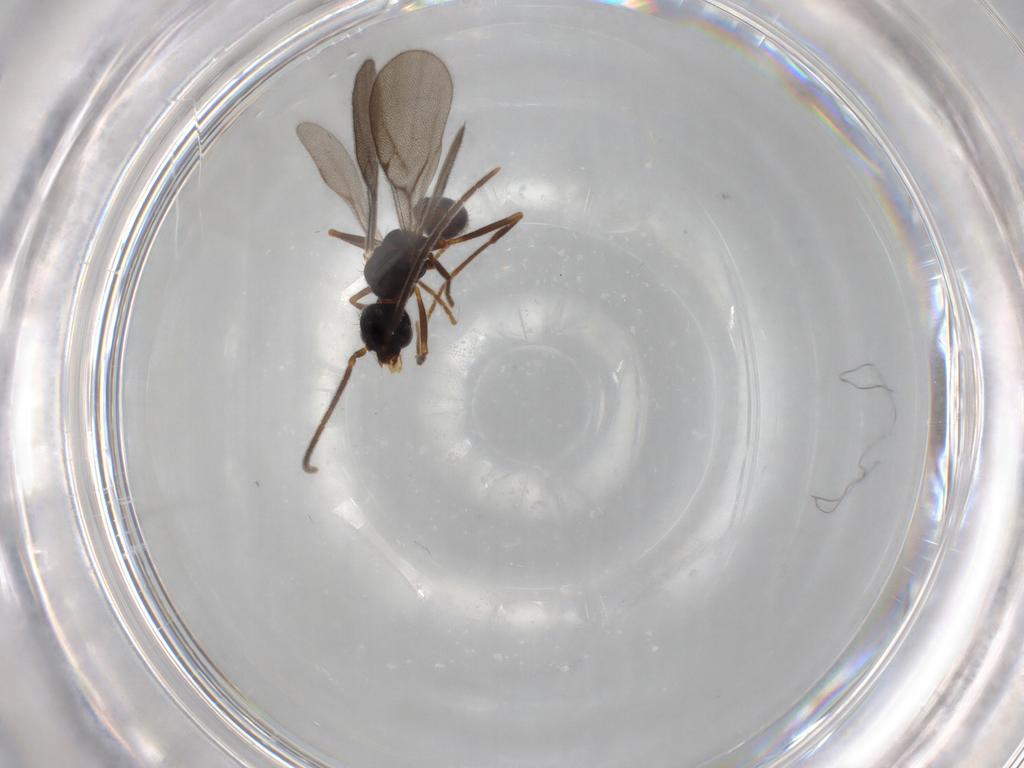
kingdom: Animalia
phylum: Arthropoda
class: Insecta
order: Hymenoptera
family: Formicidae
